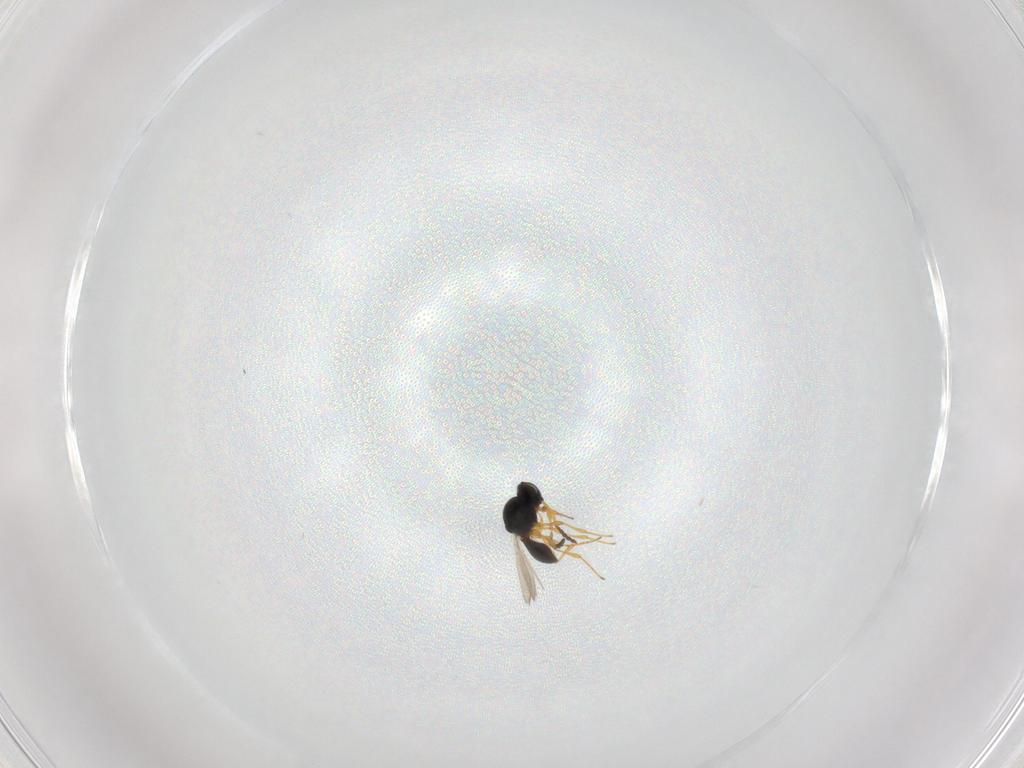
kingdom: Animalia
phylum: Arthropoda
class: Insecta
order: Hymenoptera
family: Platygastridae
